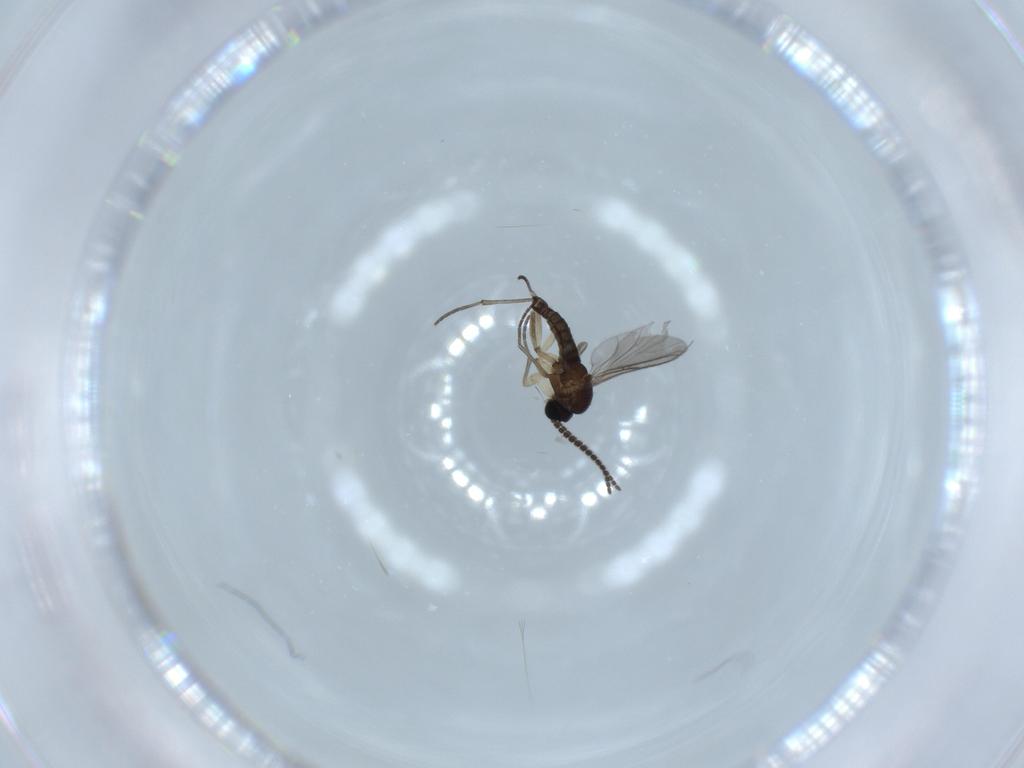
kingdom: Animalia
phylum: Arthropoda
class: Insecta
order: Diptera
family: Sciaridae
